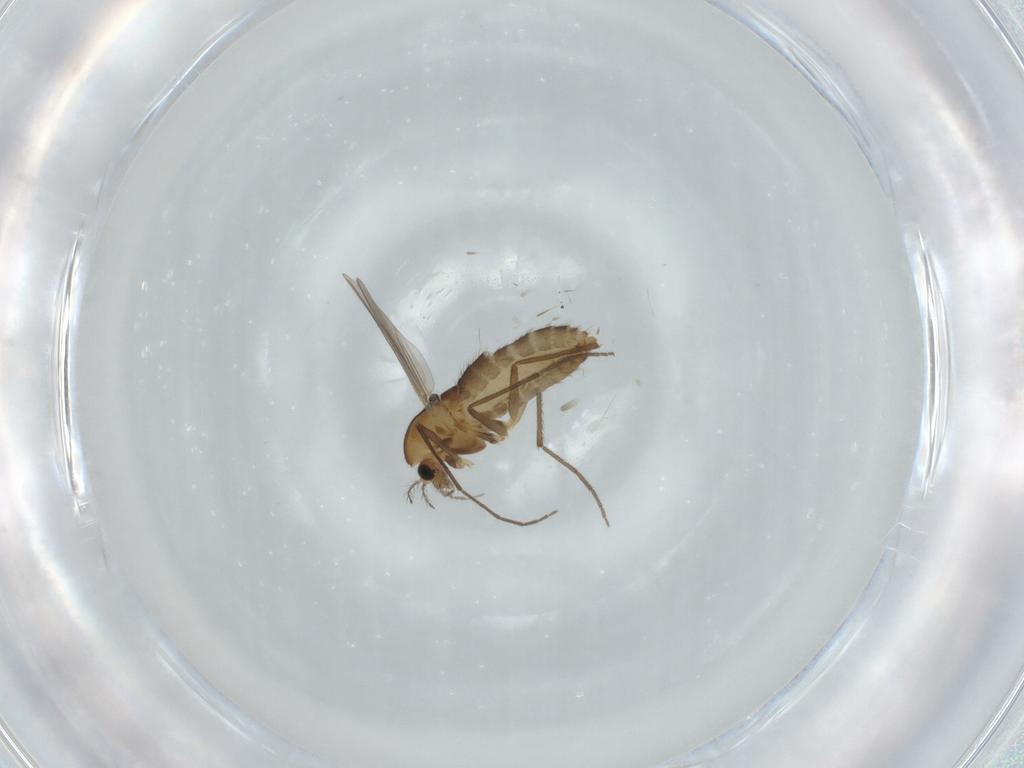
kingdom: Animalia
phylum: Arthropoda
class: Insecta
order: Diptera
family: Chironomidae
